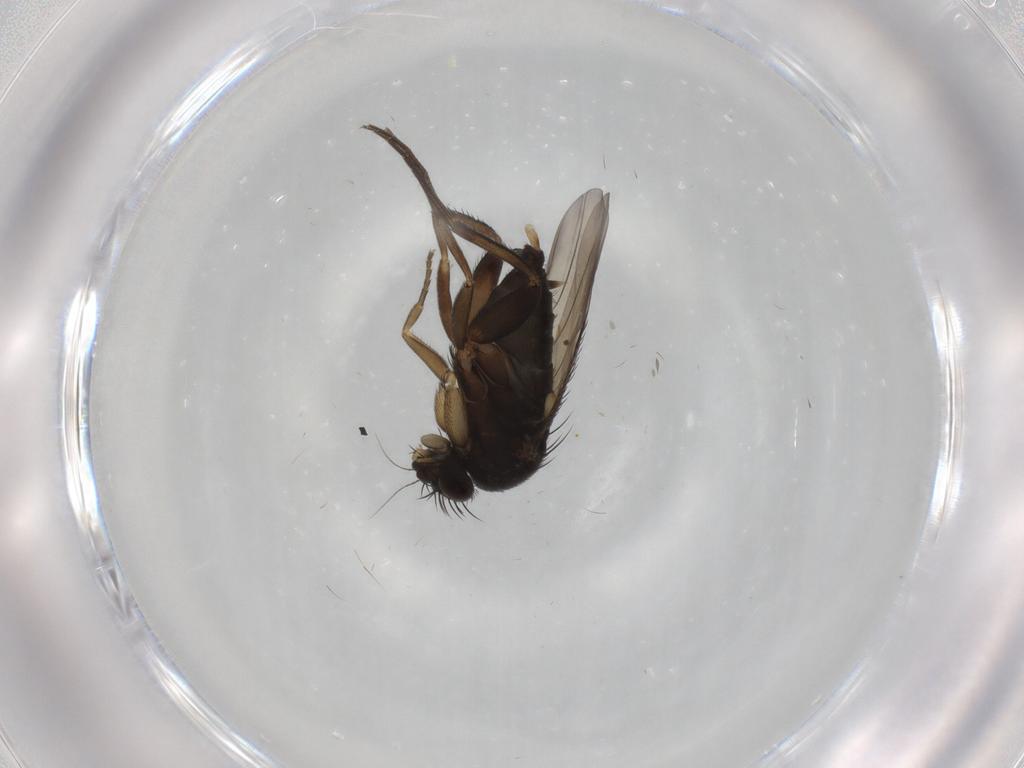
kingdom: Animalia
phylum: Arthropoda
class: Insecta
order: Diptera
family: Phoridae
